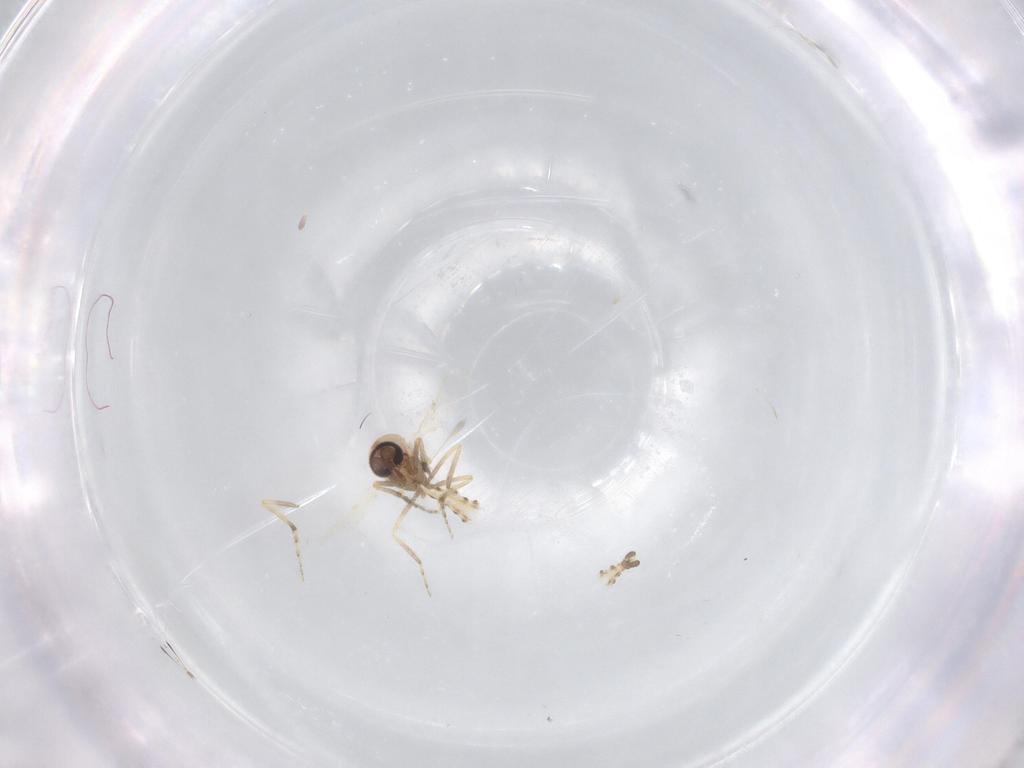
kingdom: Animalia
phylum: Arthropoda
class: Insecta
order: Diptera
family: Ceratopogonidae
